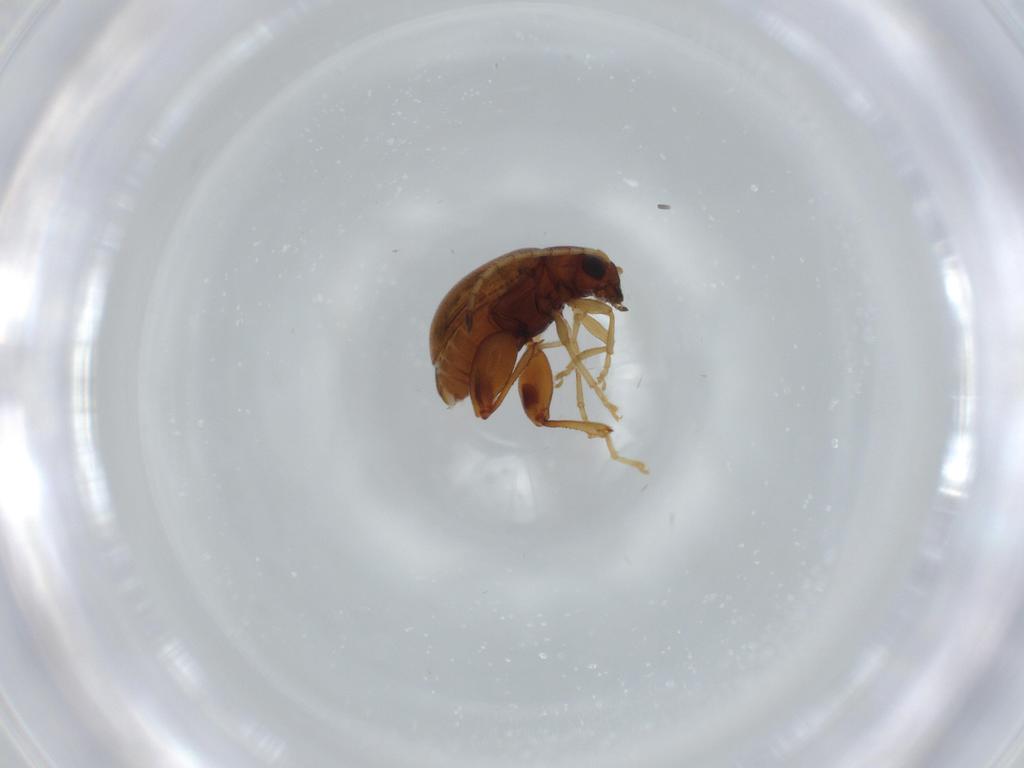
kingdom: Animalia
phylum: Arthropoda
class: Insecta
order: Coleoptera
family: Chrysomelidae
